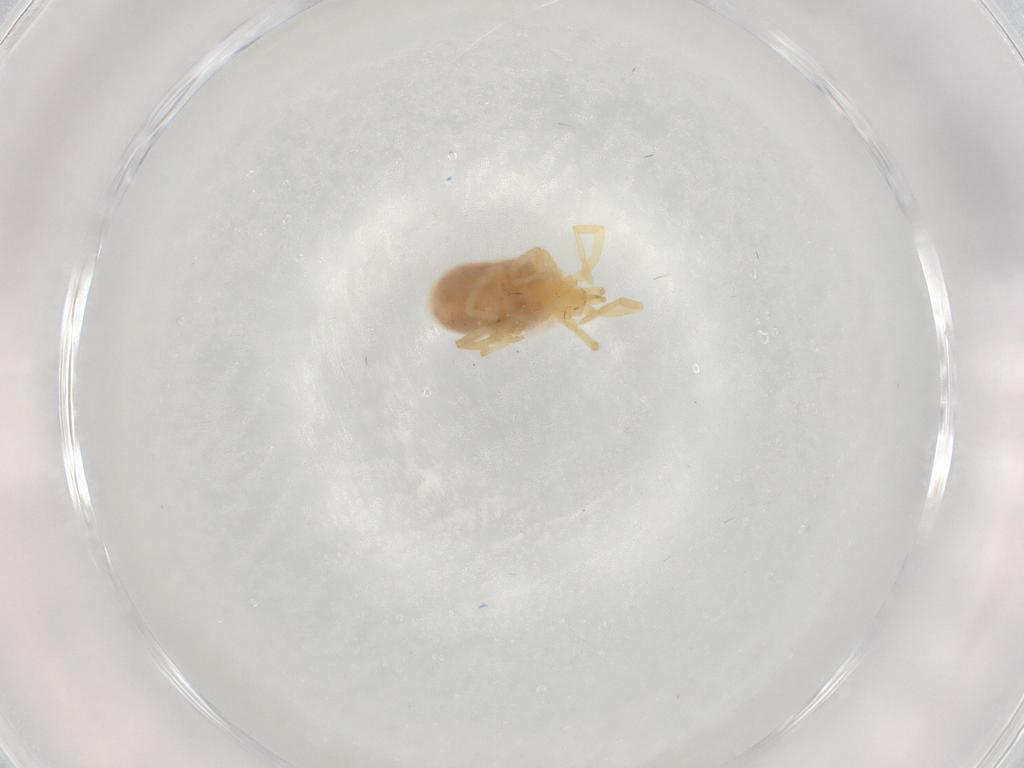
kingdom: Animalia
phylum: Arthropoda
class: Arachnida
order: Trombidiformes
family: Erythraeidae
